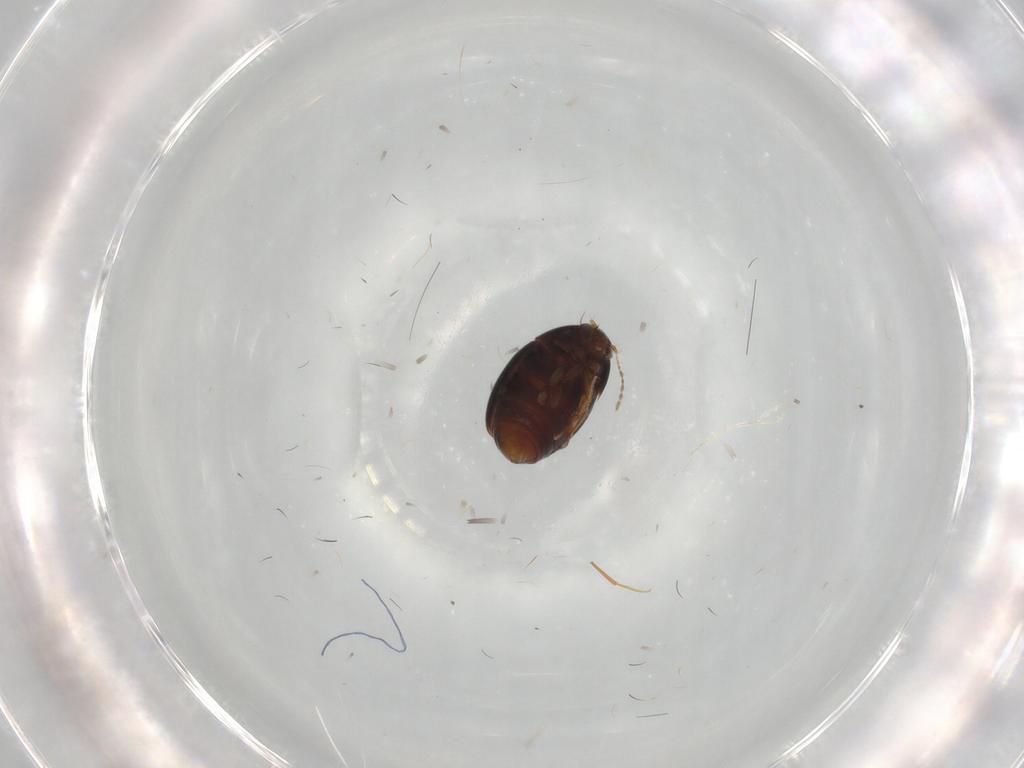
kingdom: Animalia
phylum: Arthropoda
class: Insecta
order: Coleoptera
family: Staphylinidae
